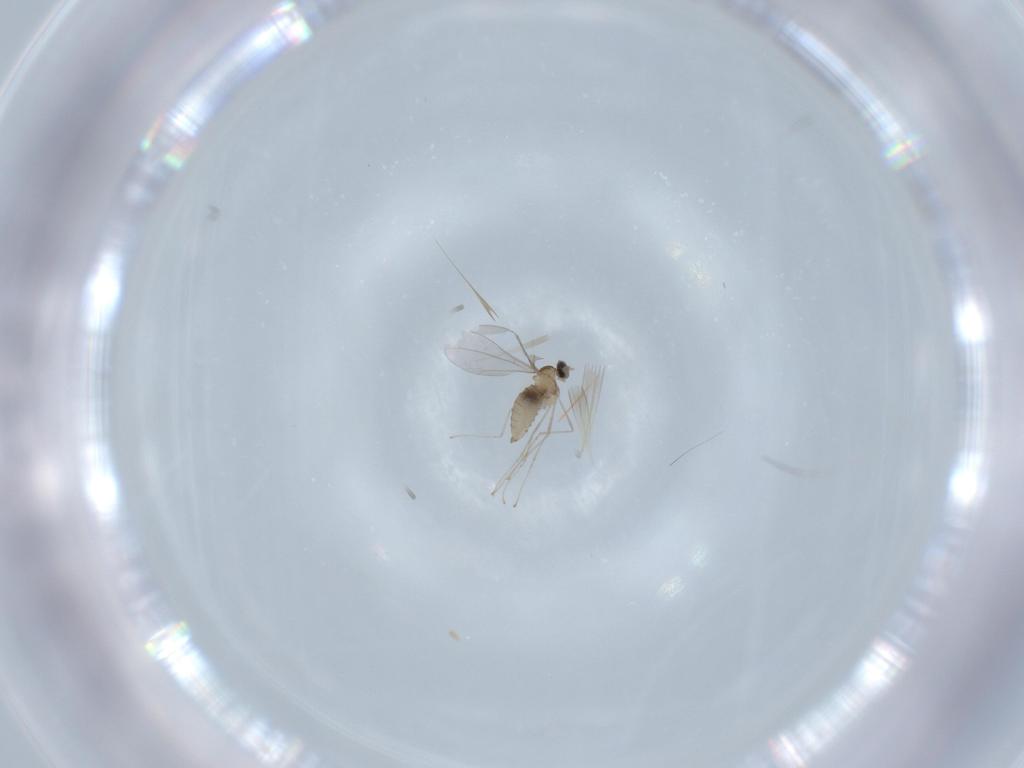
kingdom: Animalia
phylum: Arthropoda
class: Insecta
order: Diptera
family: Cecidomyiidae
